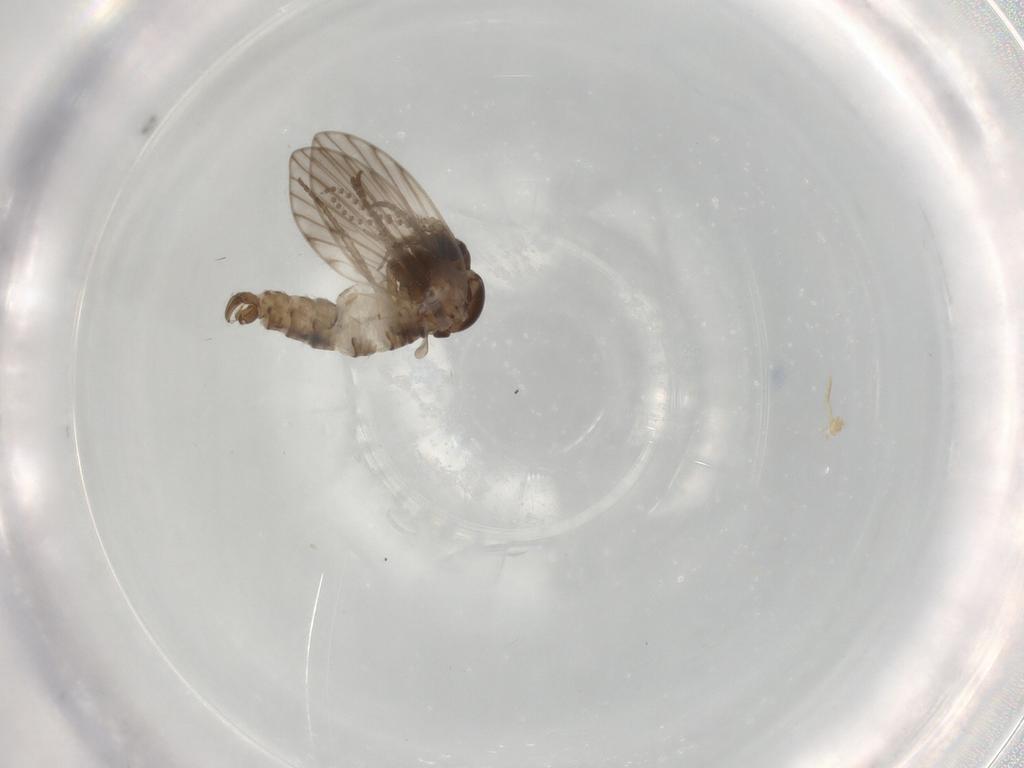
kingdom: Animalia
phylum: Arthropoda
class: Insecta
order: Diptera
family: Psychodidae
